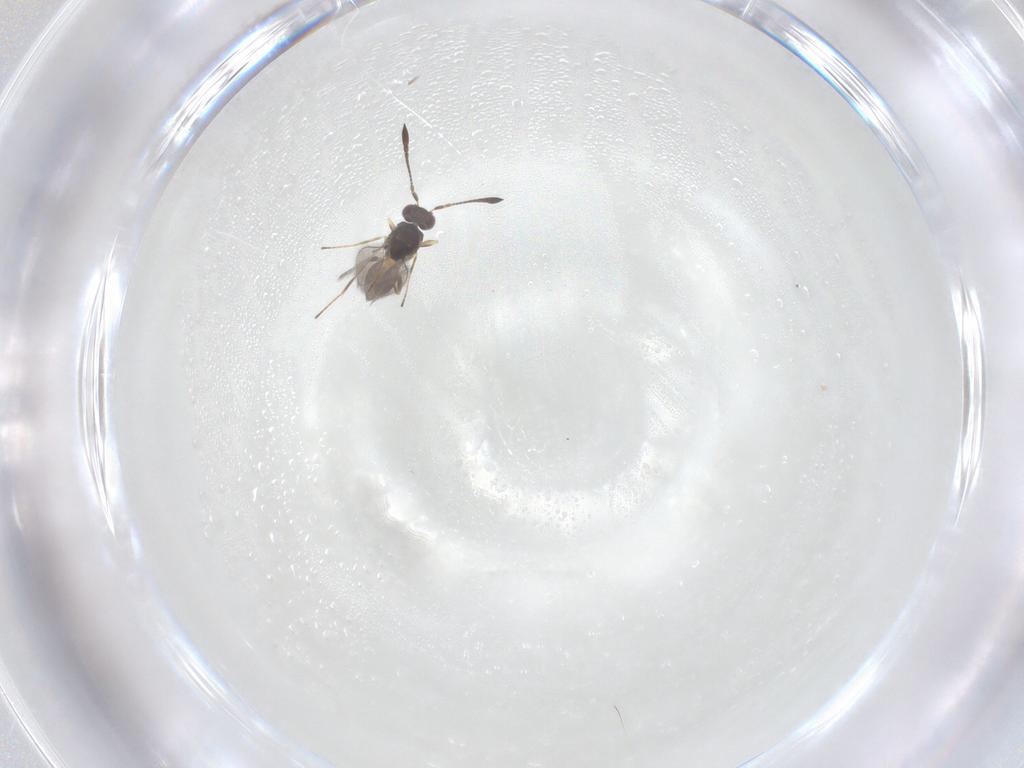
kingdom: Animalia
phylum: Arthropoda
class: Insecta
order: Hymenoptera
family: Mymaridae
